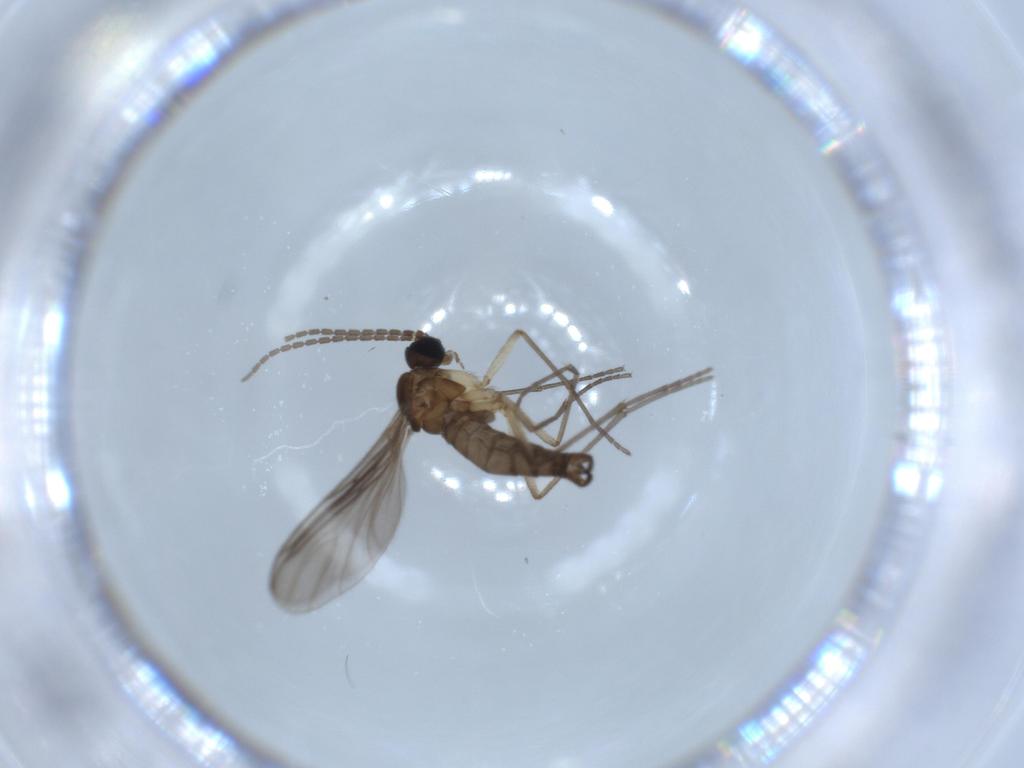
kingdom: Animalia
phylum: Arthropoda
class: Insecta
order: Diptera
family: Sciaridae
